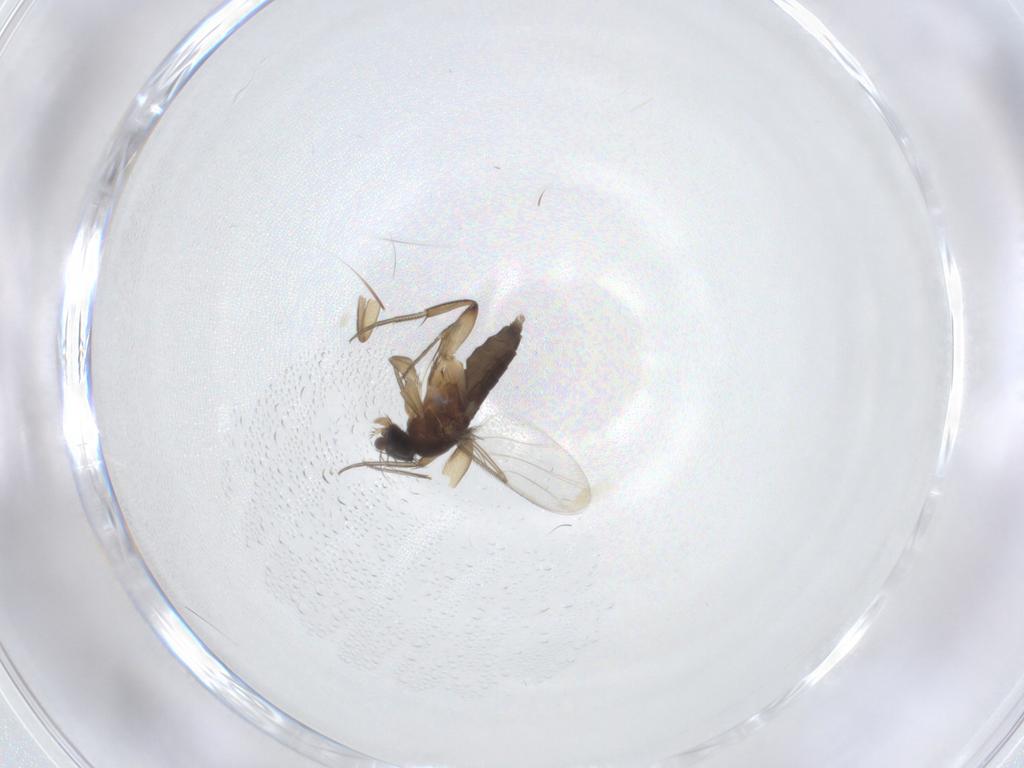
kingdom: Animalia
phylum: Arthropoda
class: Insecta
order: Diptera
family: Phoridae
